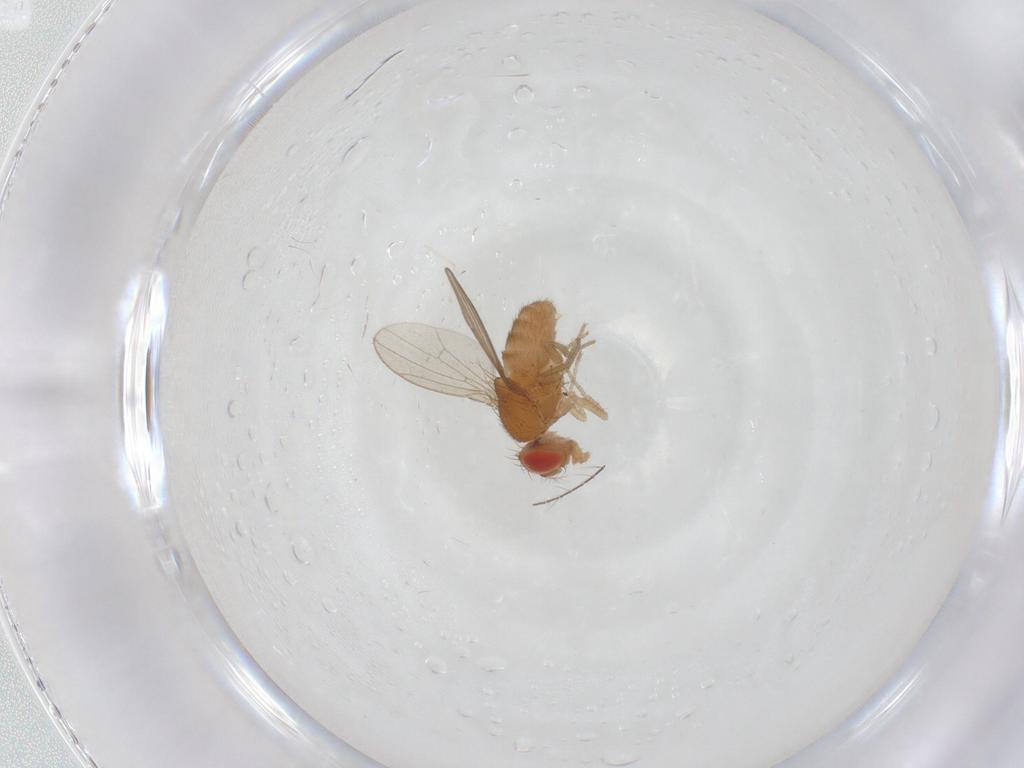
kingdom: Animalia
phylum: Arthropoda
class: Insecta
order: Diptera
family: Drosophilidae
